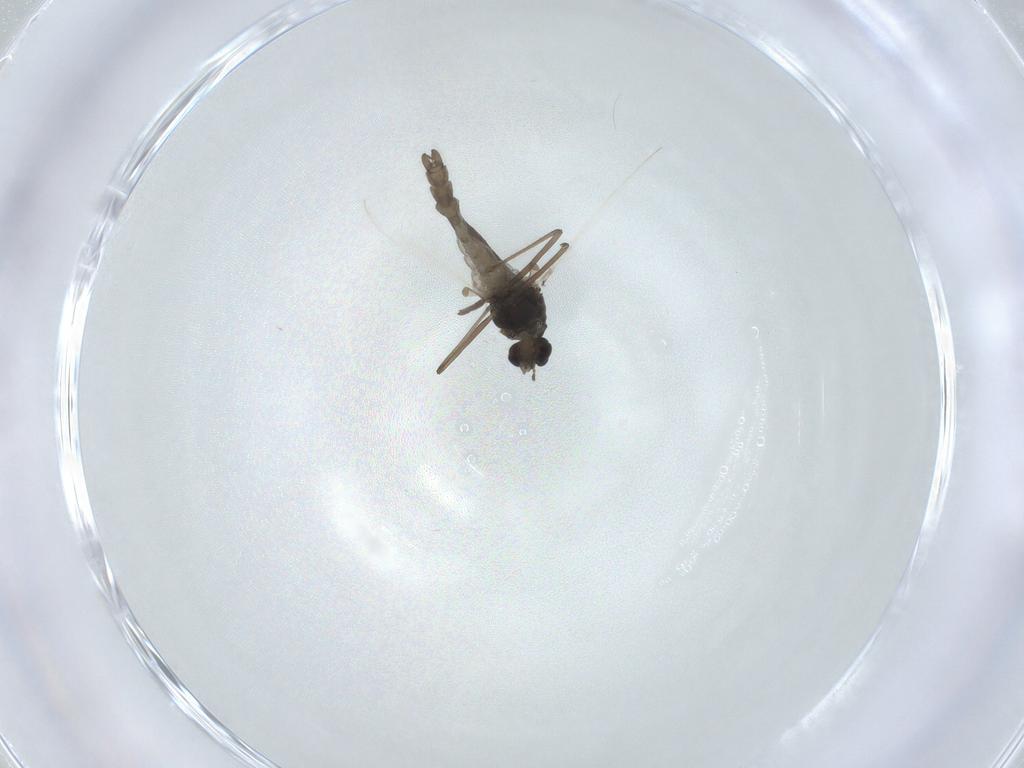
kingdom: Animalia
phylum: Arthropoda
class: Insecta
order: Diptera
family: Chironomidae
